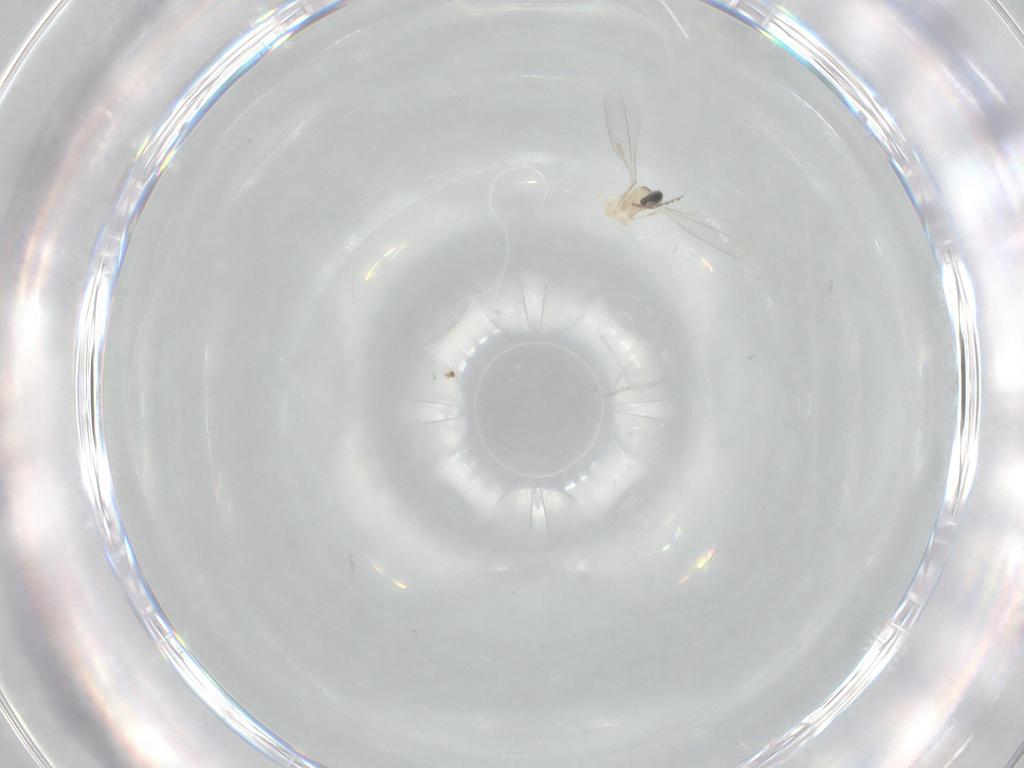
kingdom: Animalia
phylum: Arthropoda
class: Insecta
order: Diptera
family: Cecidomyiidae
